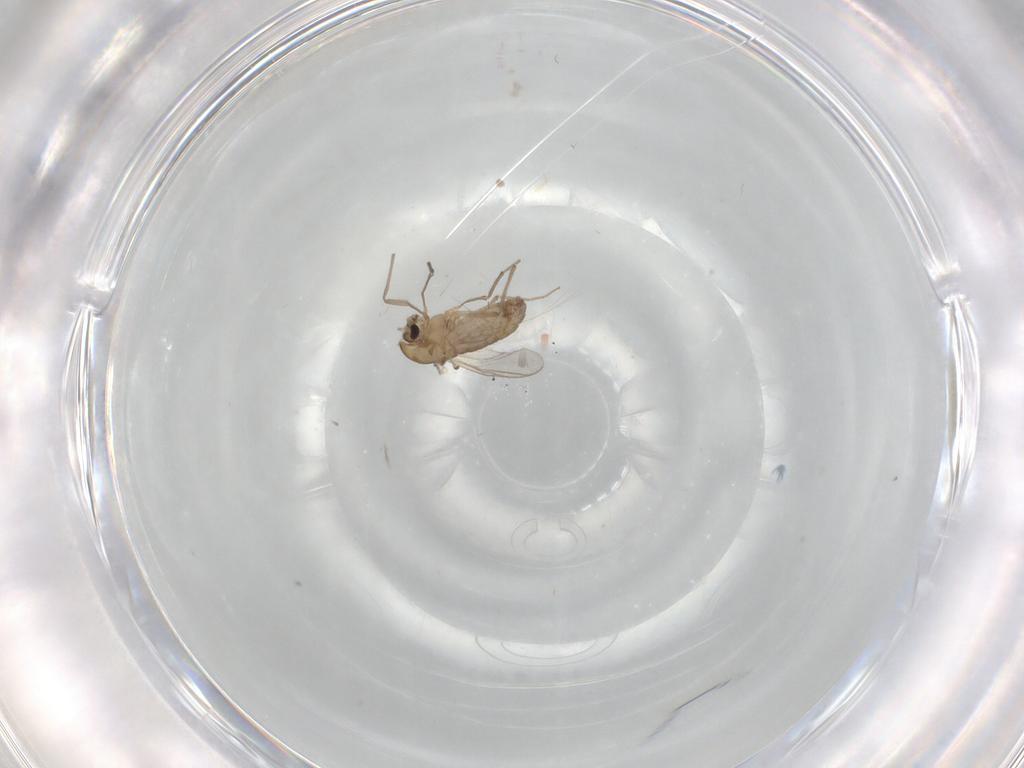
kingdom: Animalia
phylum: Arthropoda
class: Insecta
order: Diptera
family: Chironomidae
